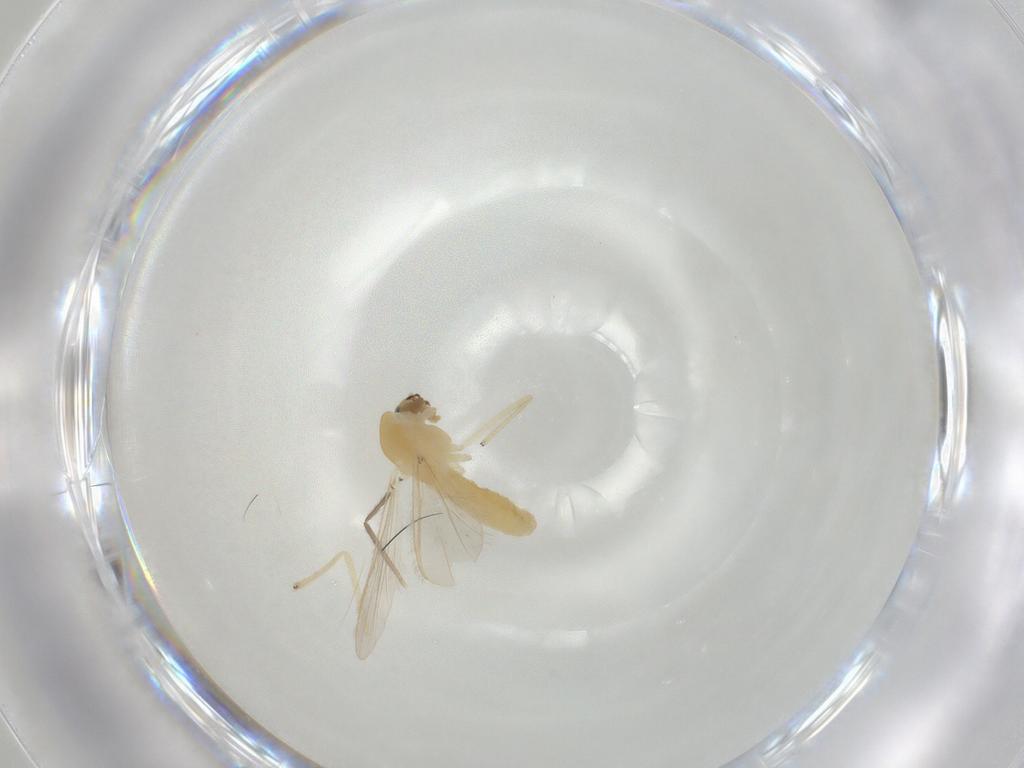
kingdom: Animalia
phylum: Arthropoda
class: Insecta
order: Diptera
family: Chironomidae
